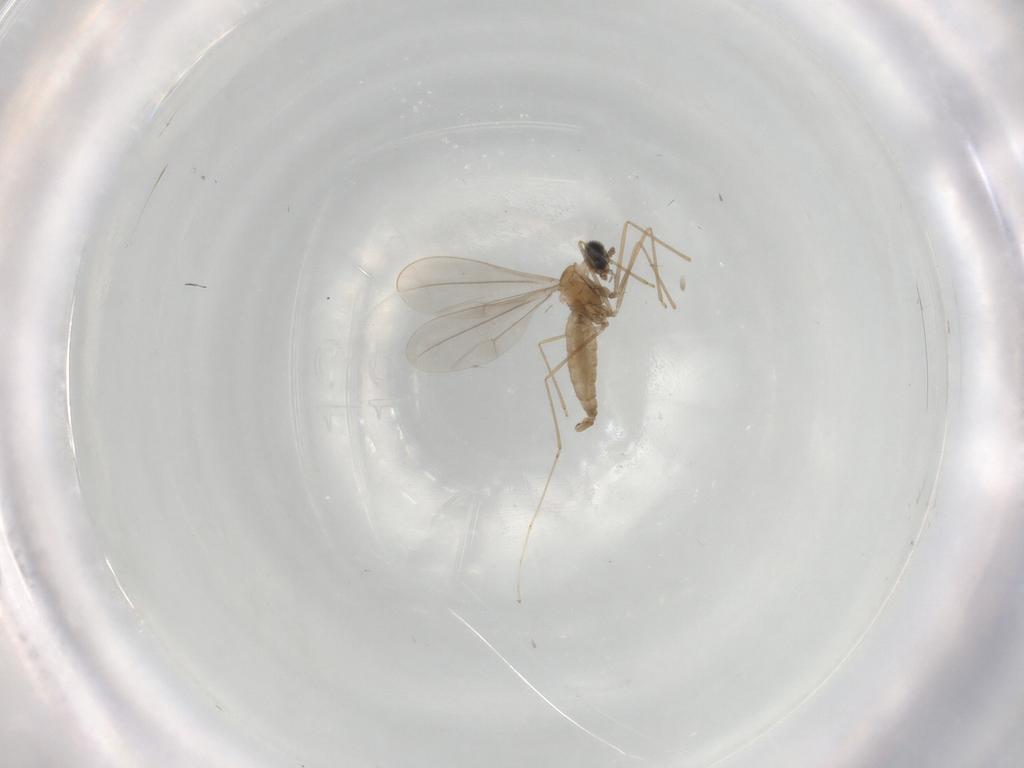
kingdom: Animalia
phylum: Arthropoda
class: Insecta
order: Diptera
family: Cecidomyiidae
